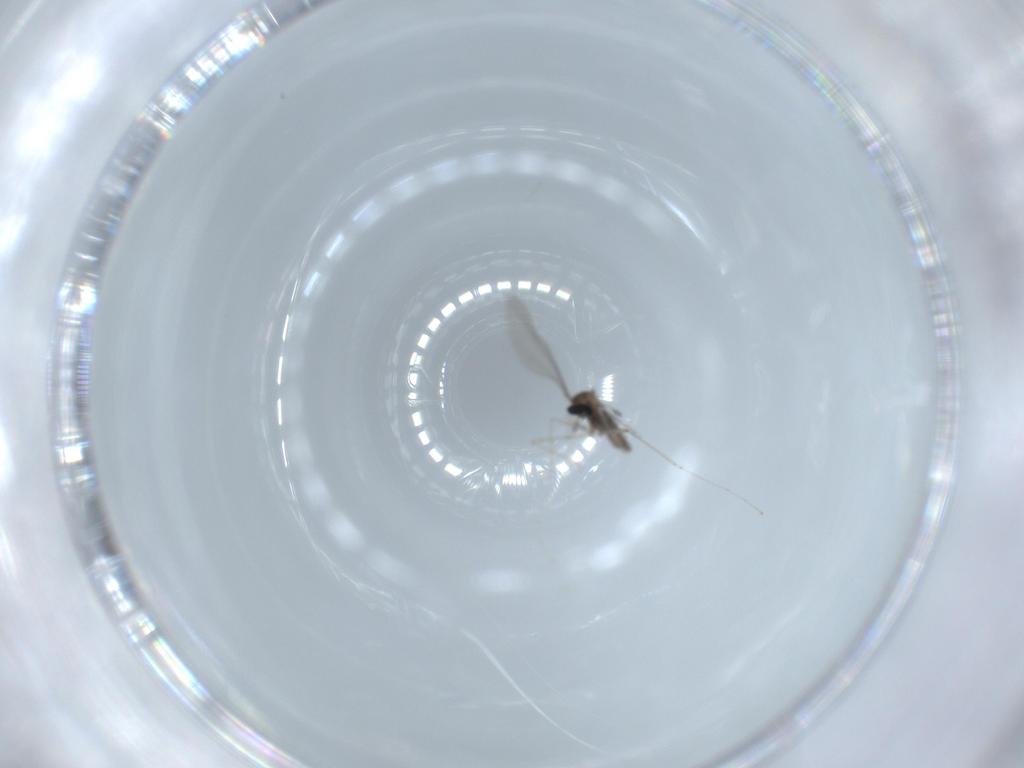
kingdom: Animalia
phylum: Arthropoda
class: Insecta
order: Diptera
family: Cecidomyiidae
